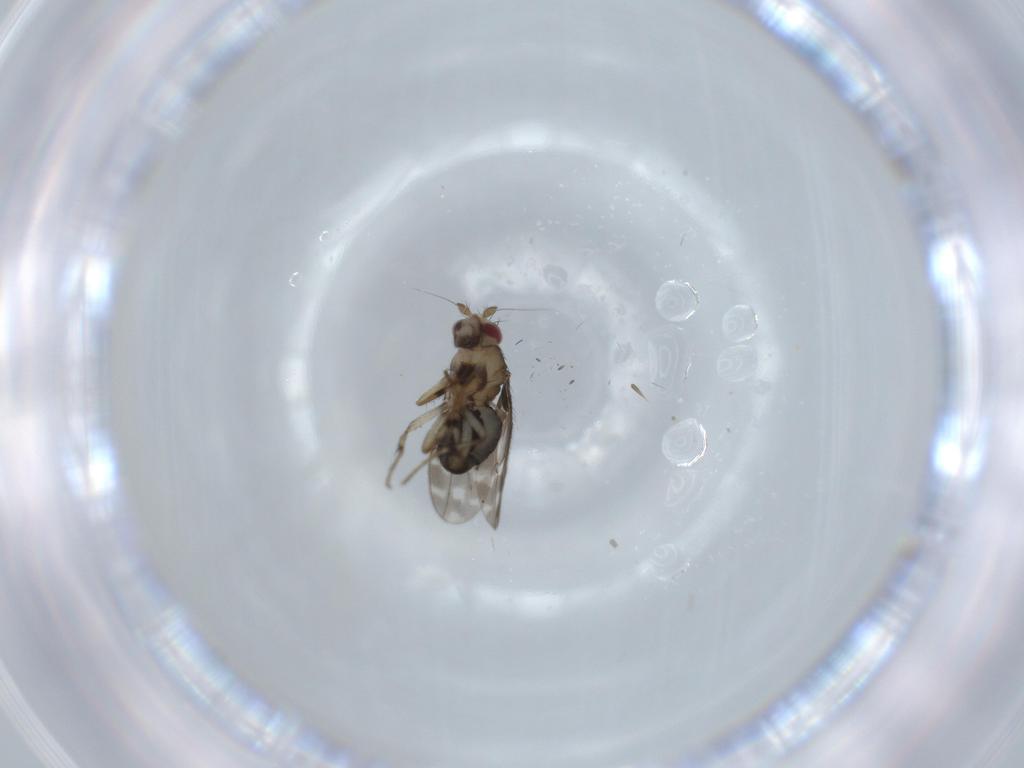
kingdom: Animalia
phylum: Arthropoda
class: Insecta
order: Diptera
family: Sphaeroceridae
